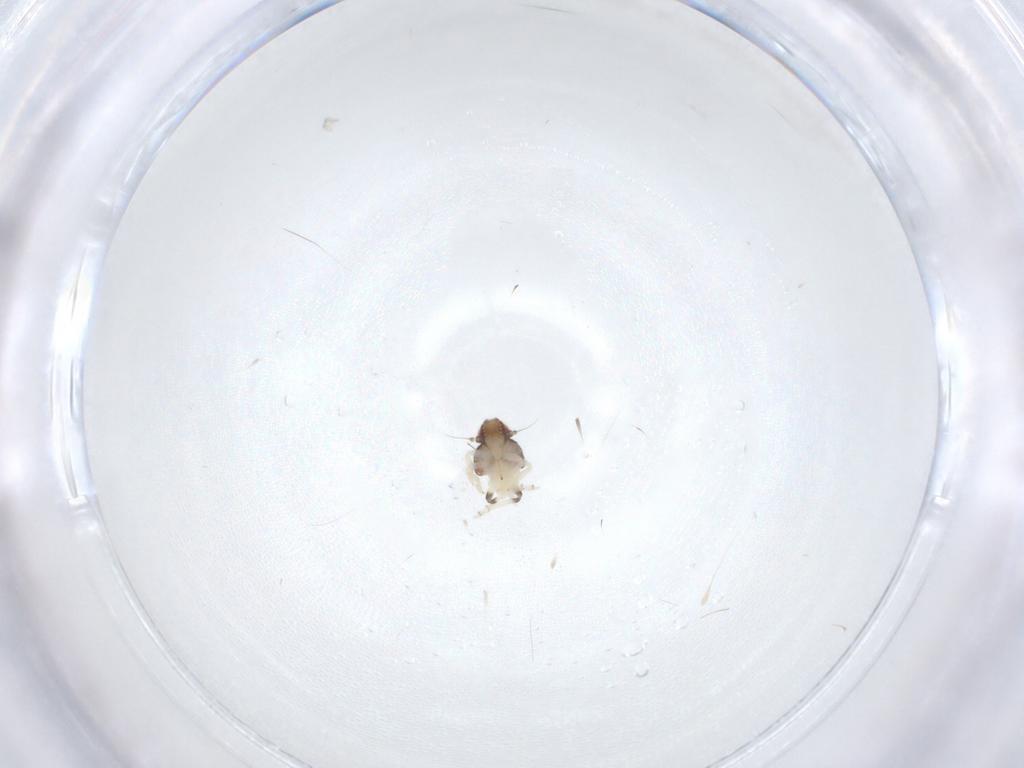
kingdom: Animalia
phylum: Arthropoda
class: Insecta
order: Hemiptera
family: Nogodinidae
